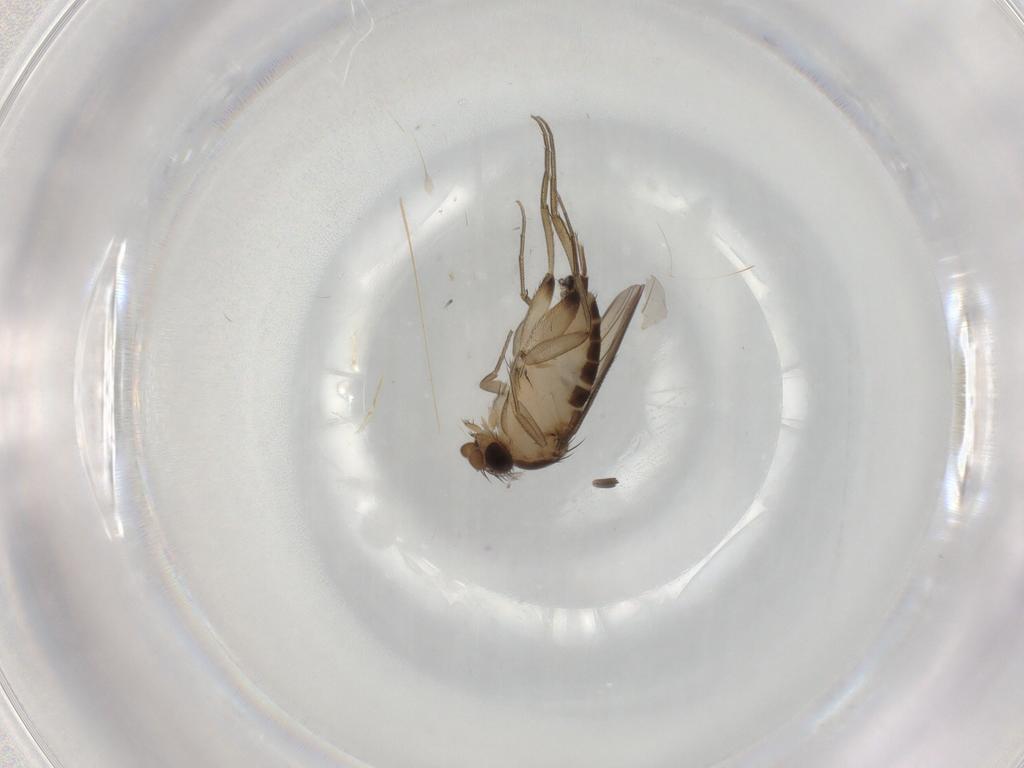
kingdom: Animalia
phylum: Arthropoda
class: Insecta
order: Diptera
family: Phoridae
